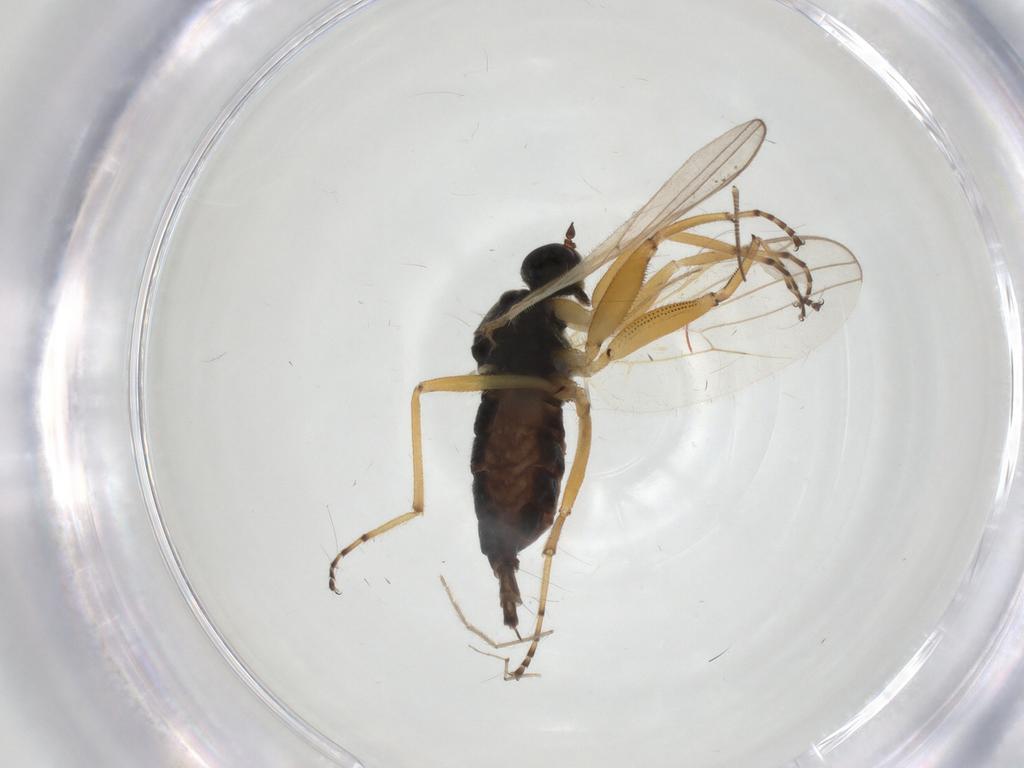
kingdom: Animalia
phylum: Arthropoda
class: Insecta
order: Diptera
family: Hybotidae
